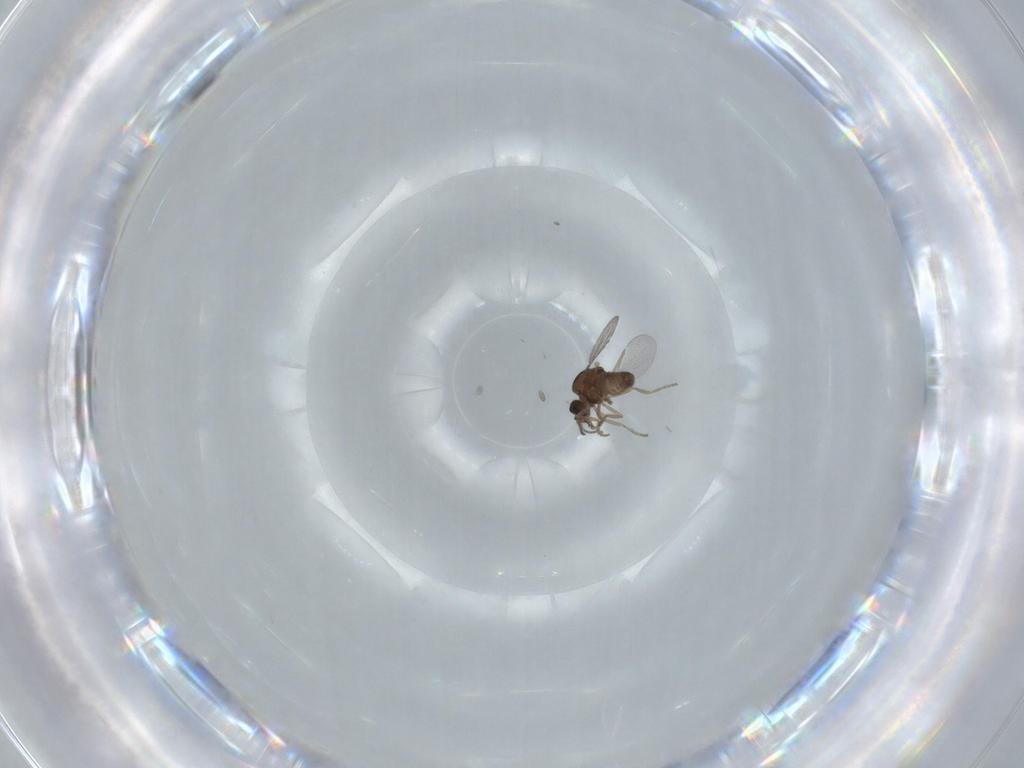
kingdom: Animalia
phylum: Arthropoda
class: Insecta
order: Diptera
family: Ceratopogonidae
